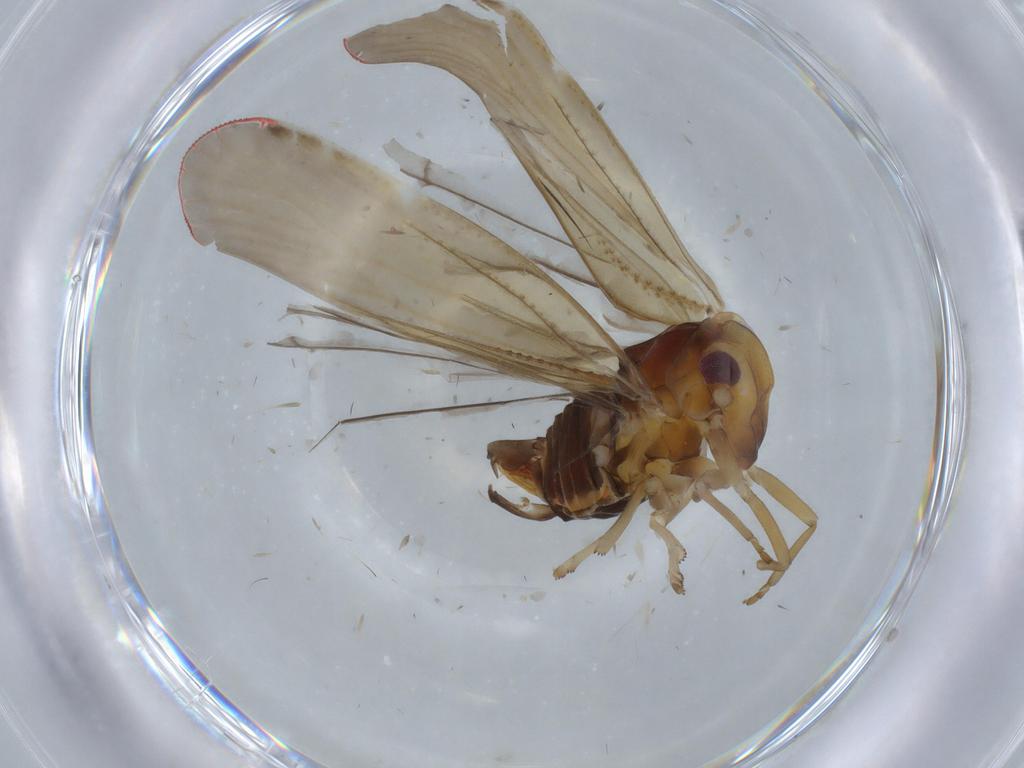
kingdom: Animalia
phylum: Arthropoda
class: Insecta
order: Hemiptera
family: Derbidae
